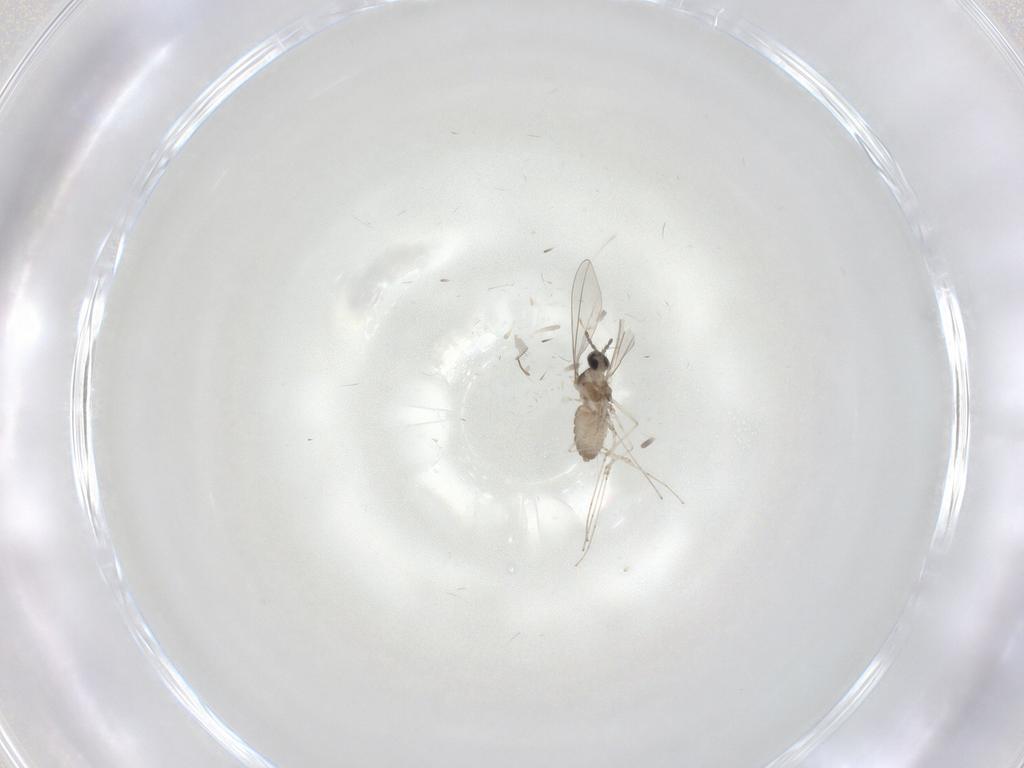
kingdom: Animalia
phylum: Arthropoda
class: Insecta
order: Diptera
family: Cecidomyiidae
